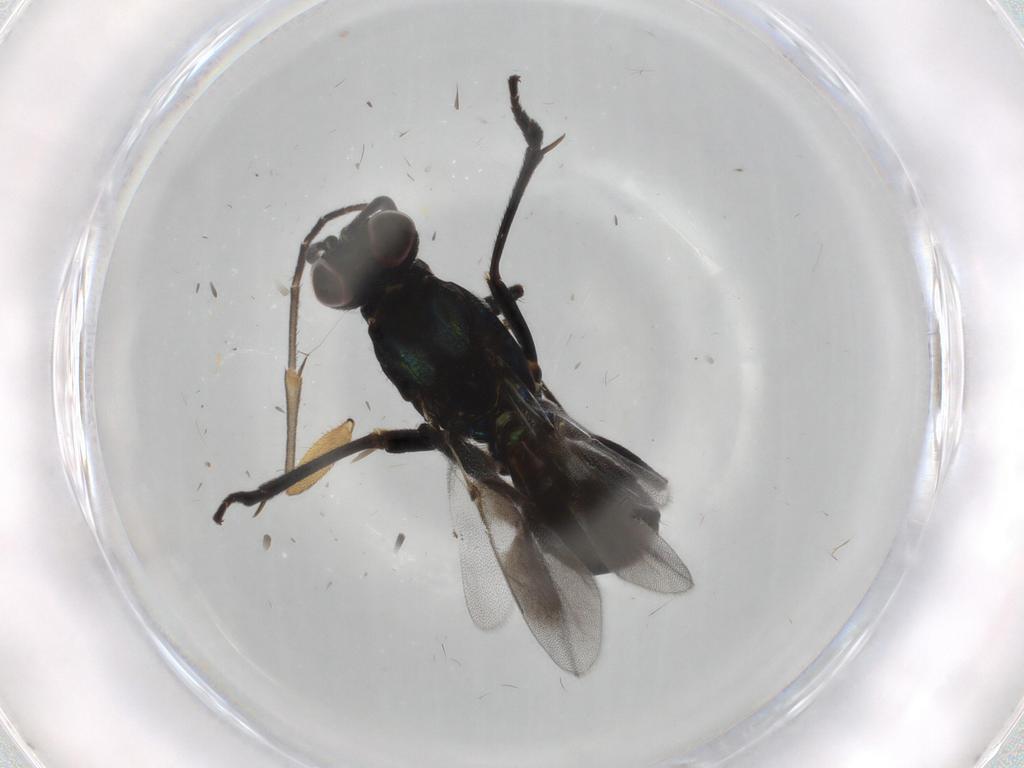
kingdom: Animalia
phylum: Arthropoda
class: Insecta
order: Hymenoptera
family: Eupelmidae
